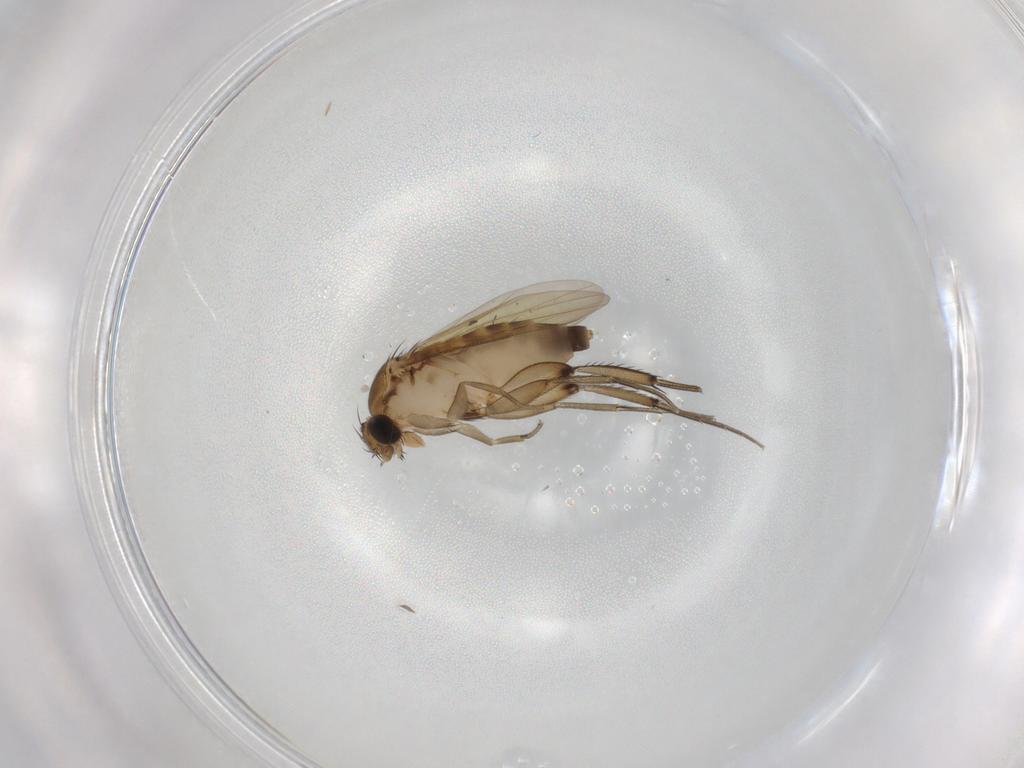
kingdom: Animalia
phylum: Arthropoda
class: Insecta
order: Diptera
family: Phoridae
